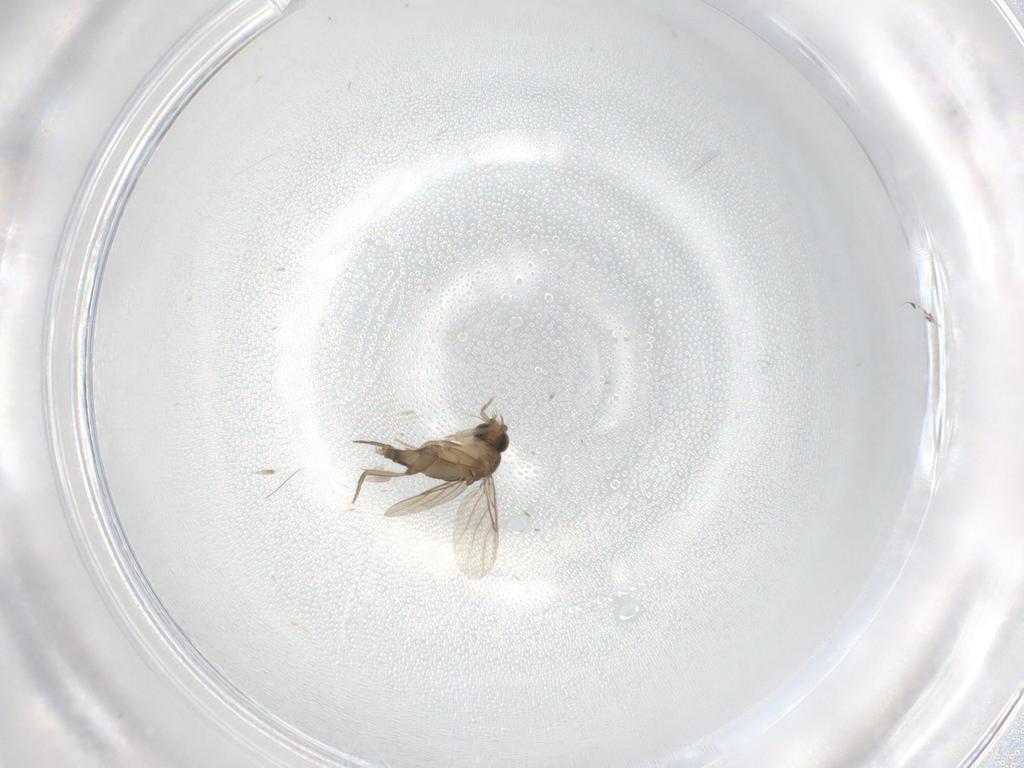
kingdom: Animalia
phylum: Arthropoda
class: Insecta
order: Diptera
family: Phoridae
